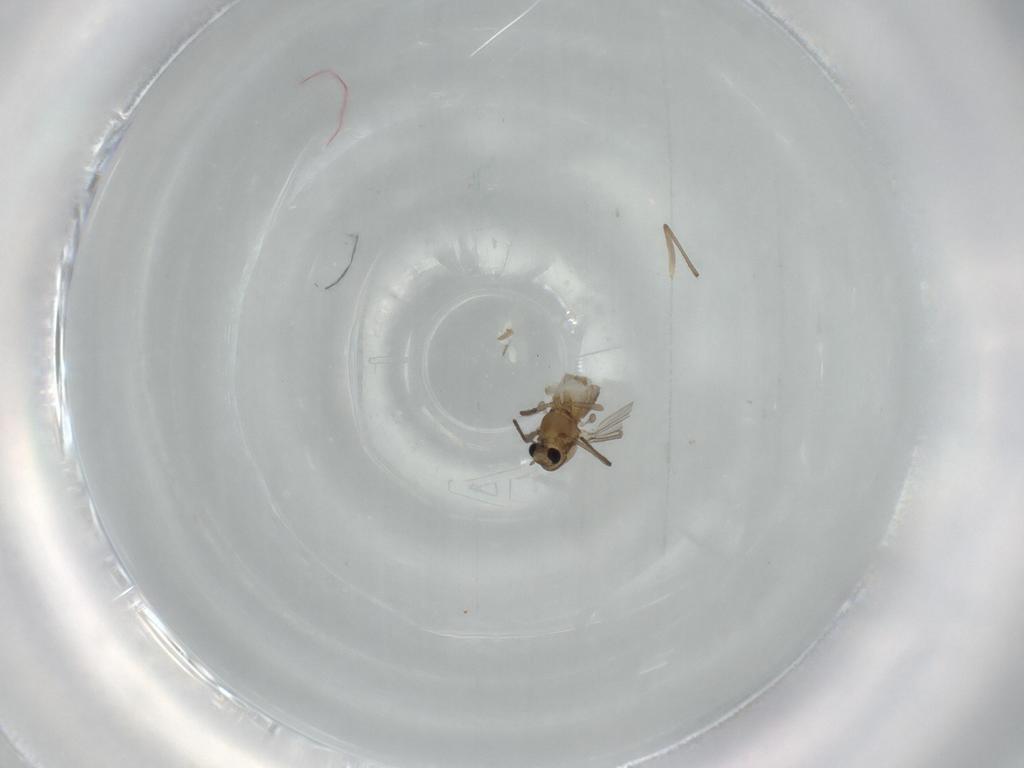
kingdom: Animalia
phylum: Arthropoda
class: Insecta
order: Diptera
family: Chironomidae
